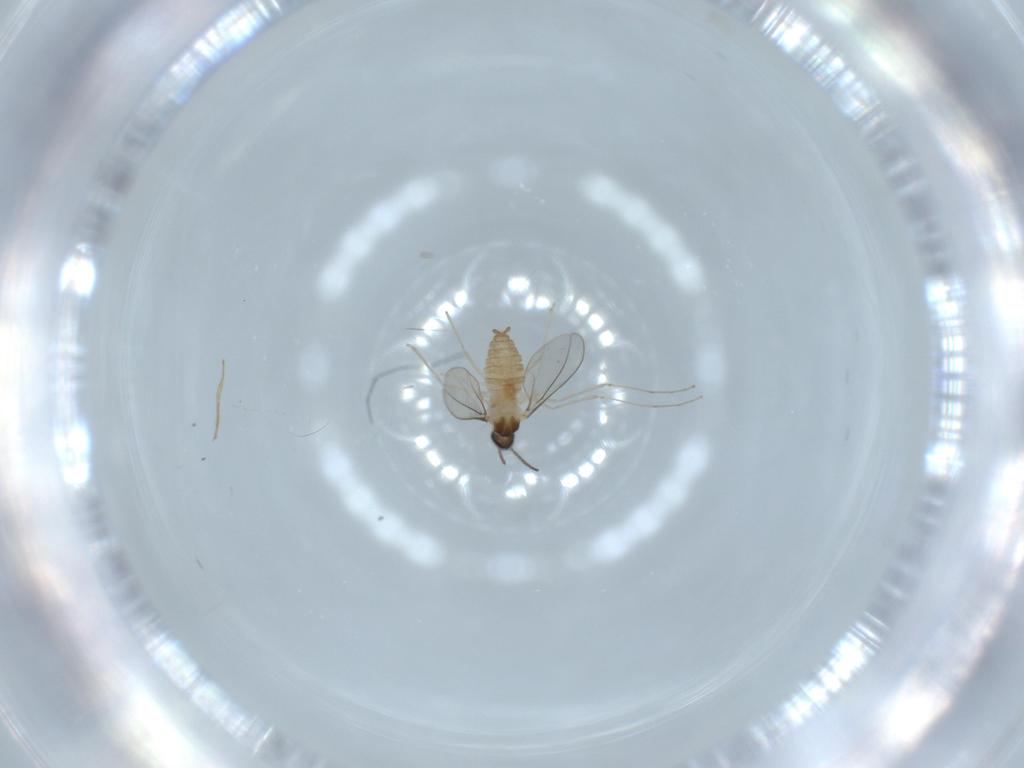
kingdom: Animalia
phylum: Arthropoda
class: Insecta
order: Diptera
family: Cecidomyiidae
